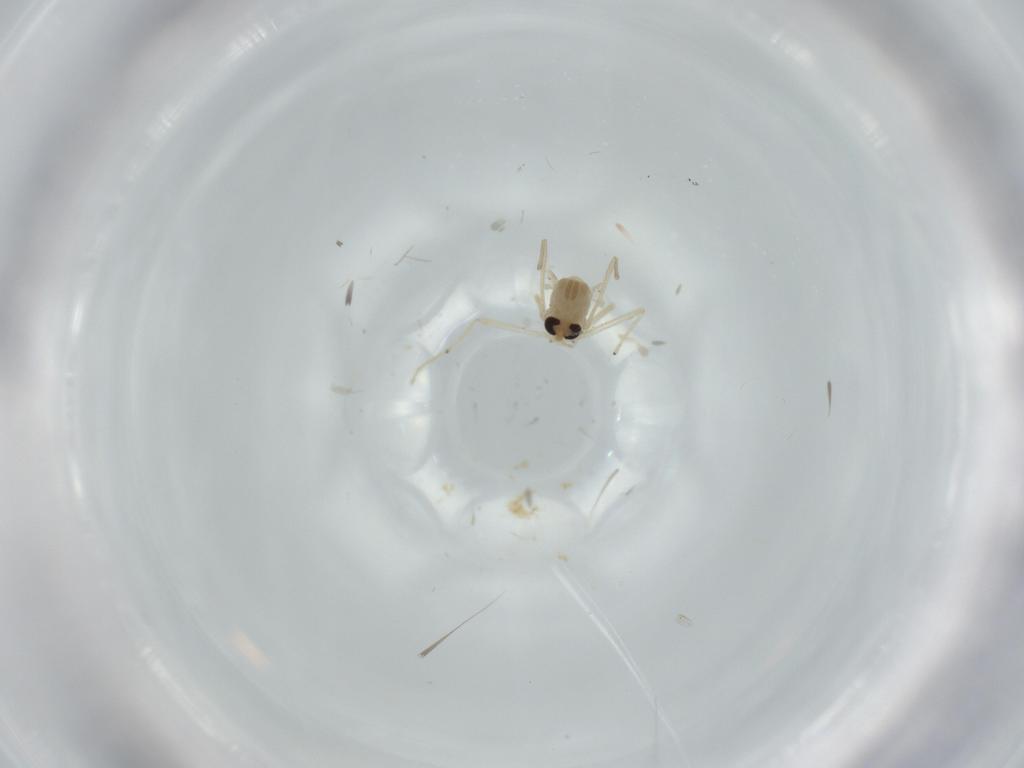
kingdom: Animalia
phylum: Arthropoda
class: Insecta
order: Diptera
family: Chironomidae
